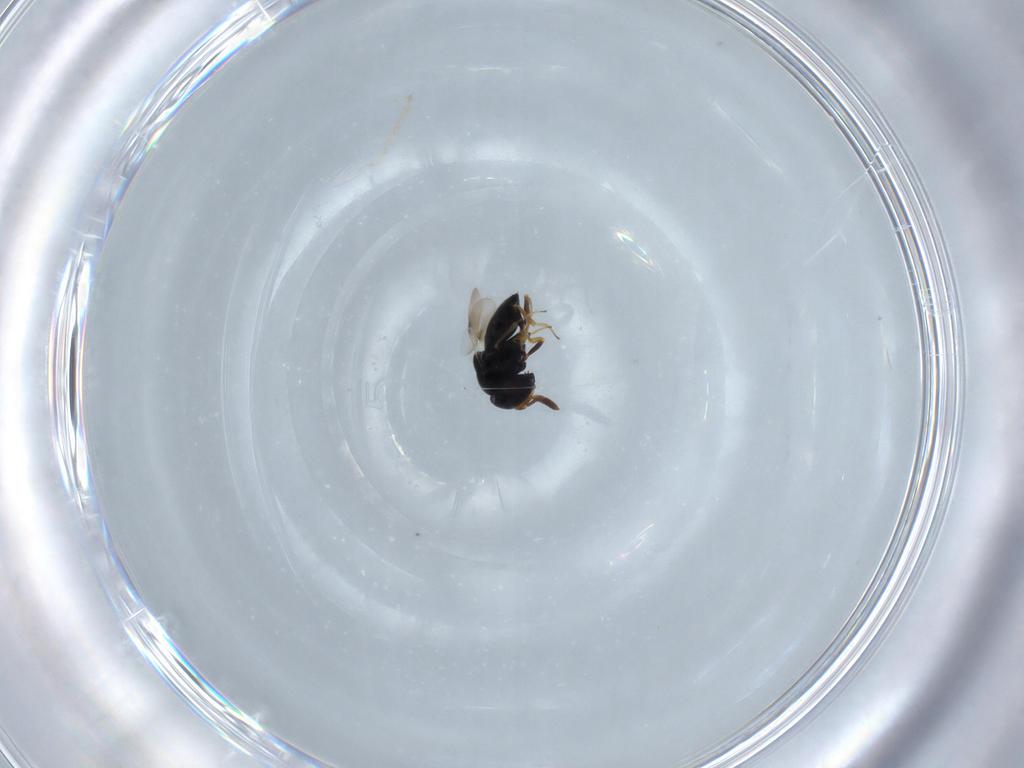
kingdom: Animalia
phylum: Arthropoda
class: Insecta
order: Hymenoptera
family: Scelionidae
